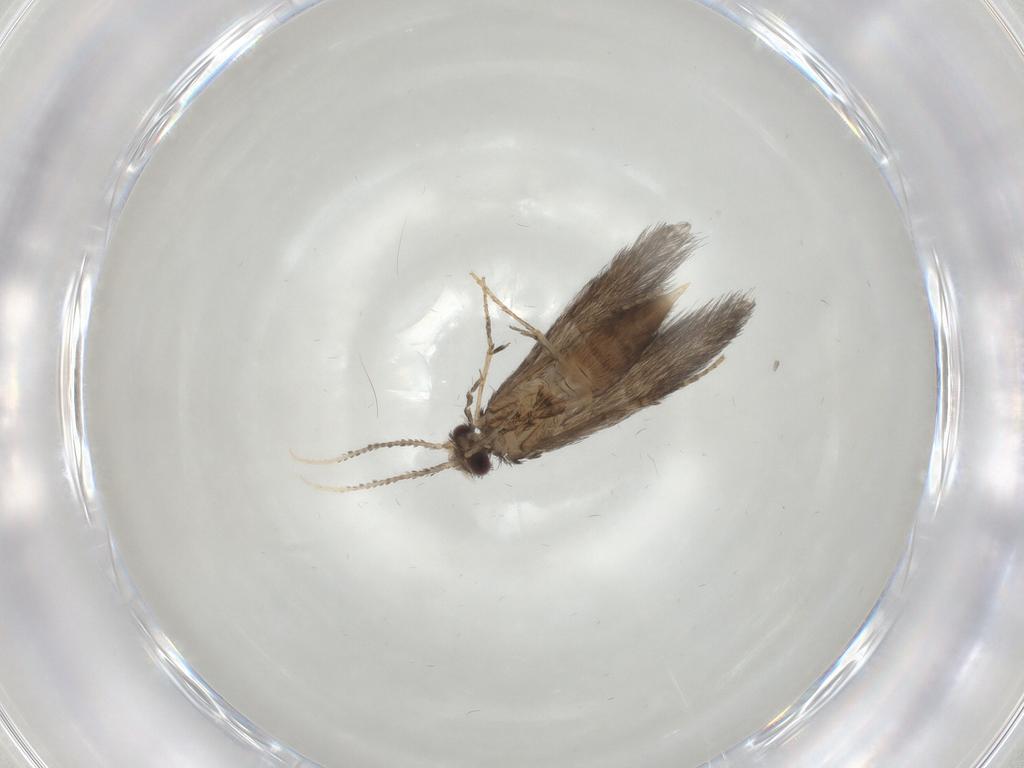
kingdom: Animalia
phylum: Arthropoda
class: Insecta
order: Trichoptera
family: Hydroptilidae
